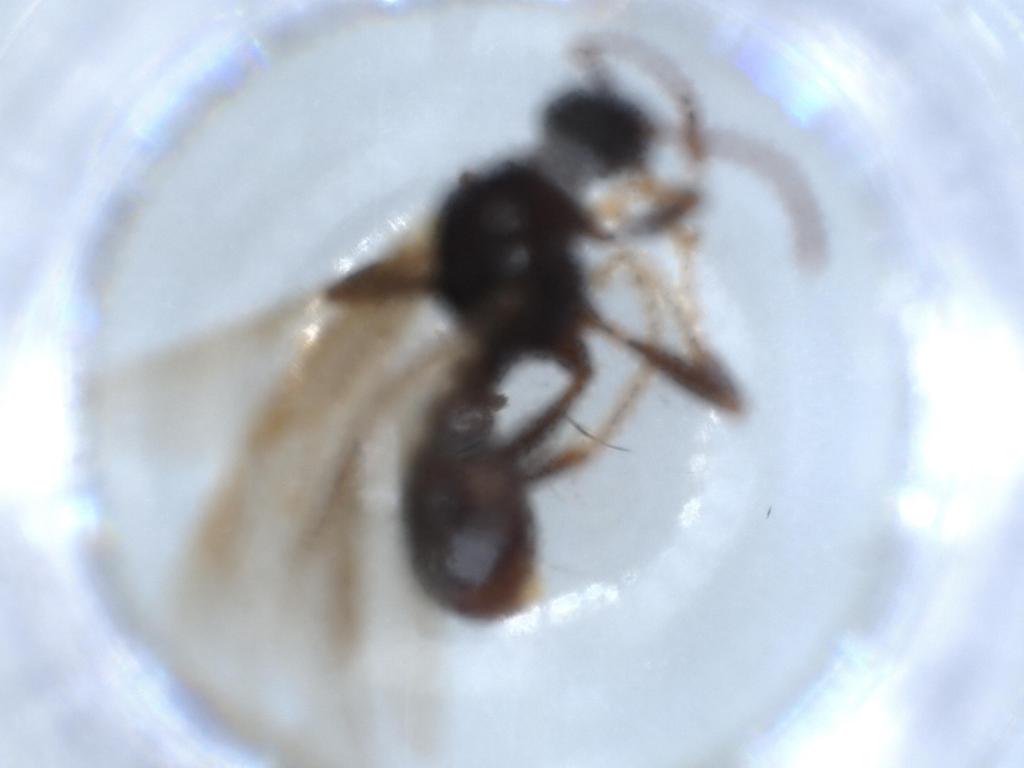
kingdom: Animalia
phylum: Arthropoda
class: Insecta
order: Hymenoptera
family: Formicidae
